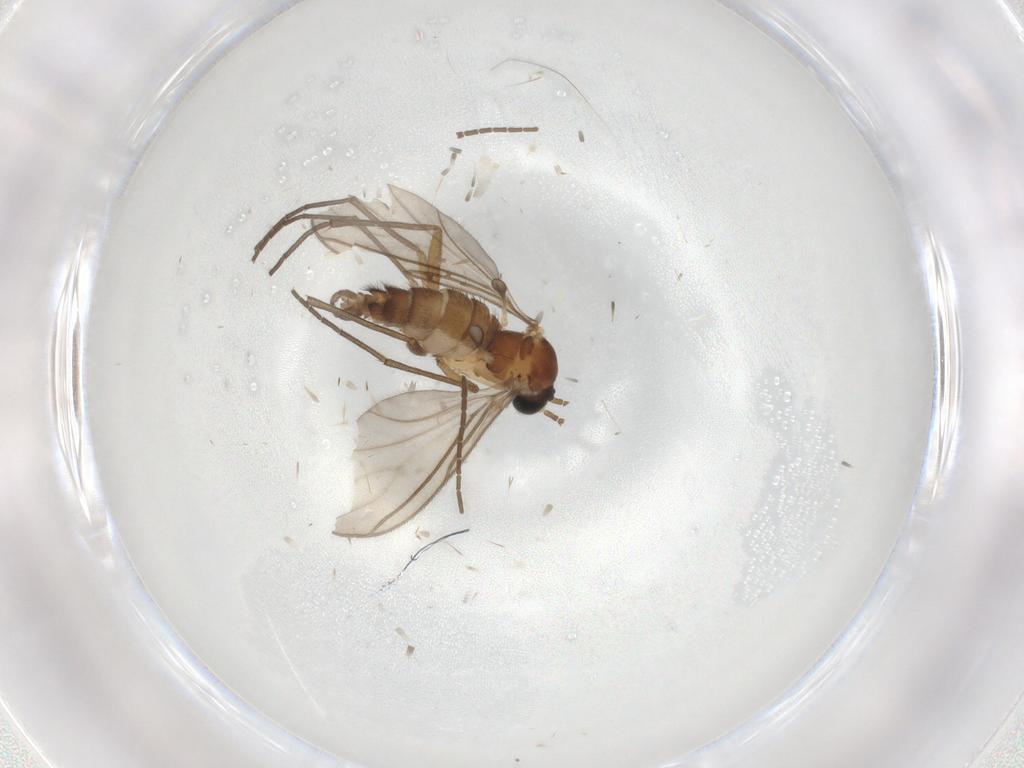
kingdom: Animalia
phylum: Arthropoda
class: Insecta
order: Diptera
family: Sciaridae
